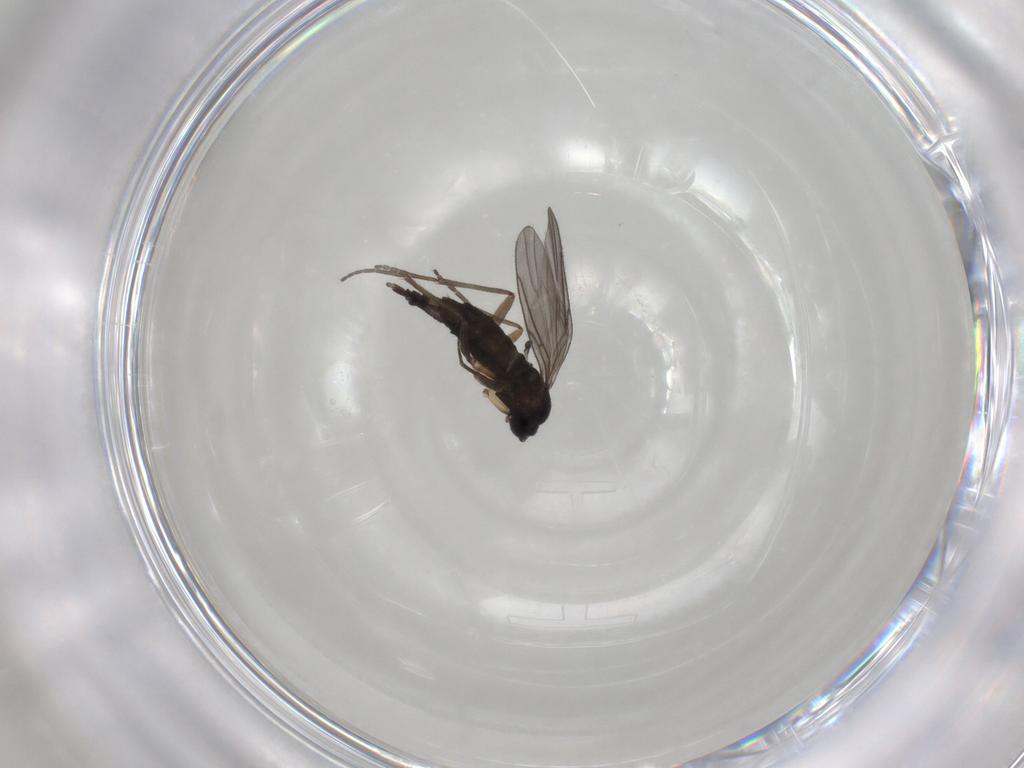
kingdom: Animalia
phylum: Arthropoda
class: Insecta
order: Diptera
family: Sciaridae
